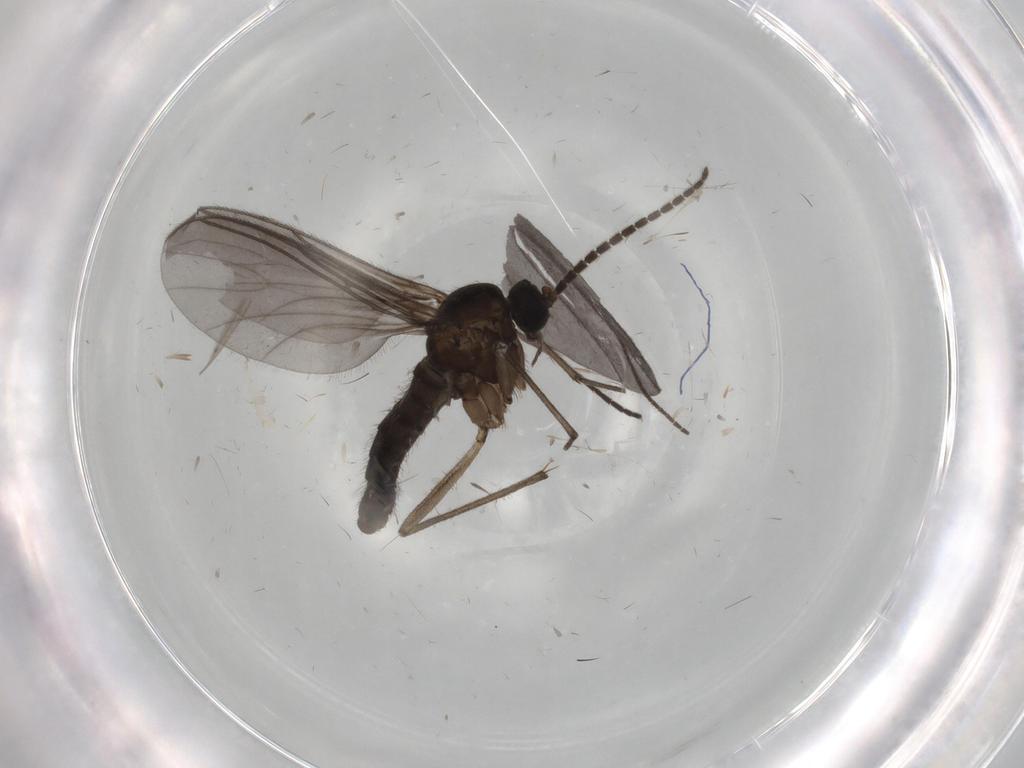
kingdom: Animalia
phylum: Arthropoda
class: Insecta
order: Diptera
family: Sciaridae
